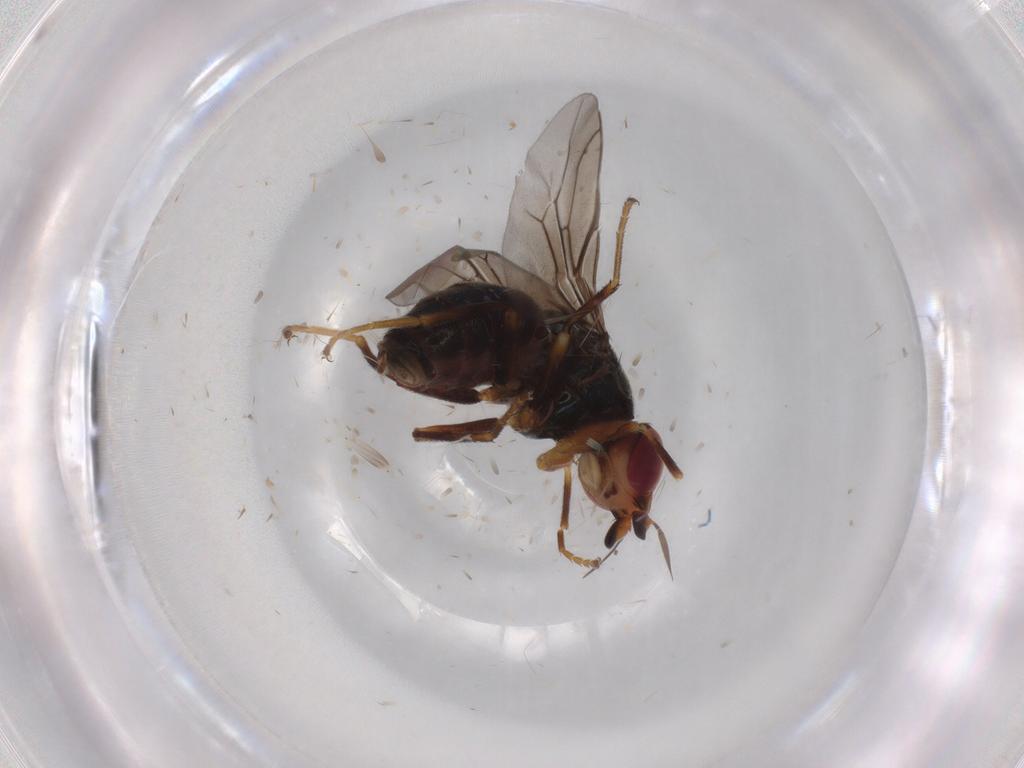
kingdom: Animalia
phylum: Arthropoda
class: Insecta
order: Diptera
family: Chloropidae
